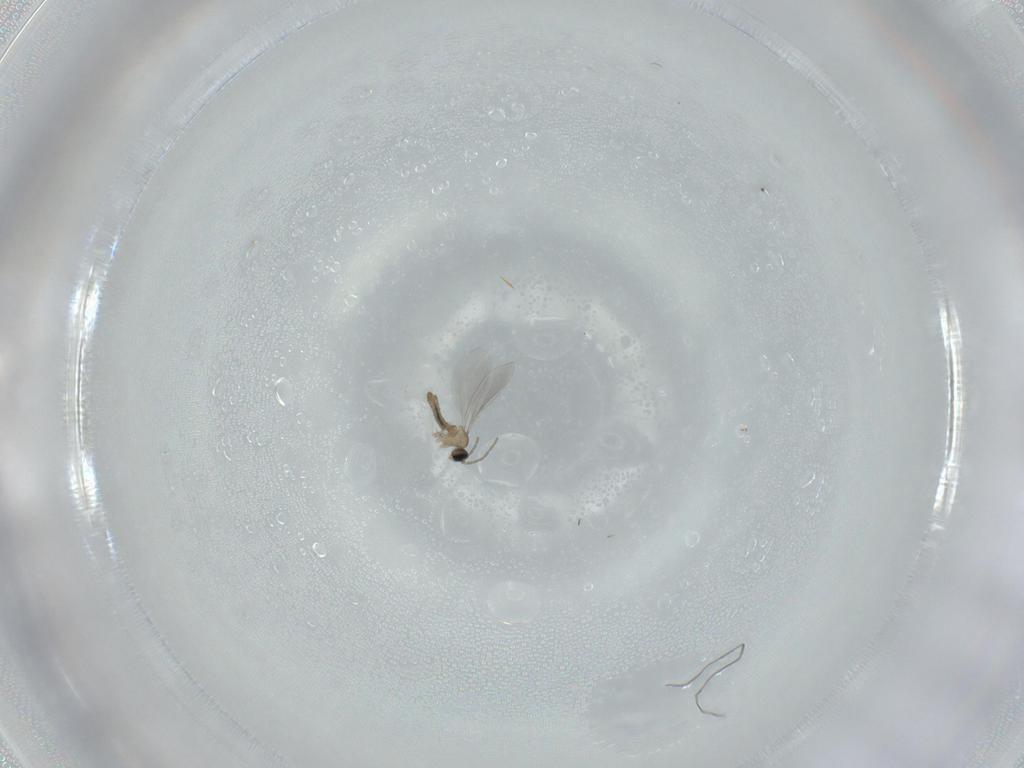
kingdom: Animalia
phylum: Arthropoda
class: Insecta
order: Diptera
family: Cecidomyiidae
